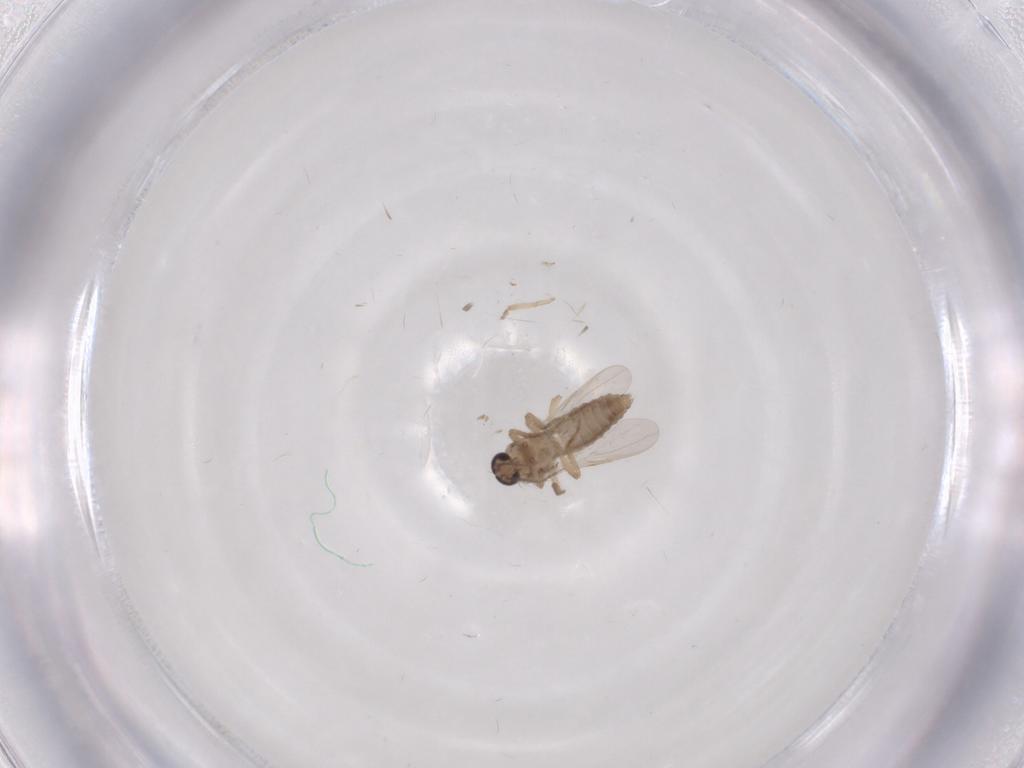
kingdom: Animalia
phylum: Arthropoda
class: Insecta
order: Diptera
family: Ceratopogonidae
